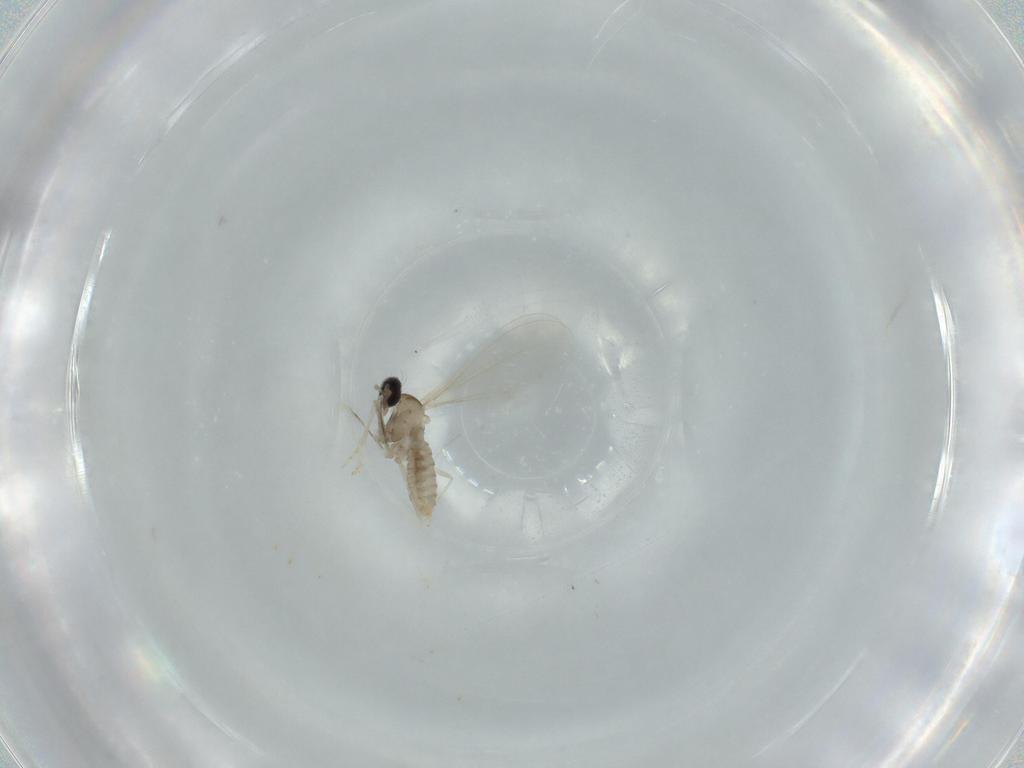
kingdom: Animalia
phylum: Arthropoda
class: Insecta
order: Diptera
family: Cecidomyiidae
